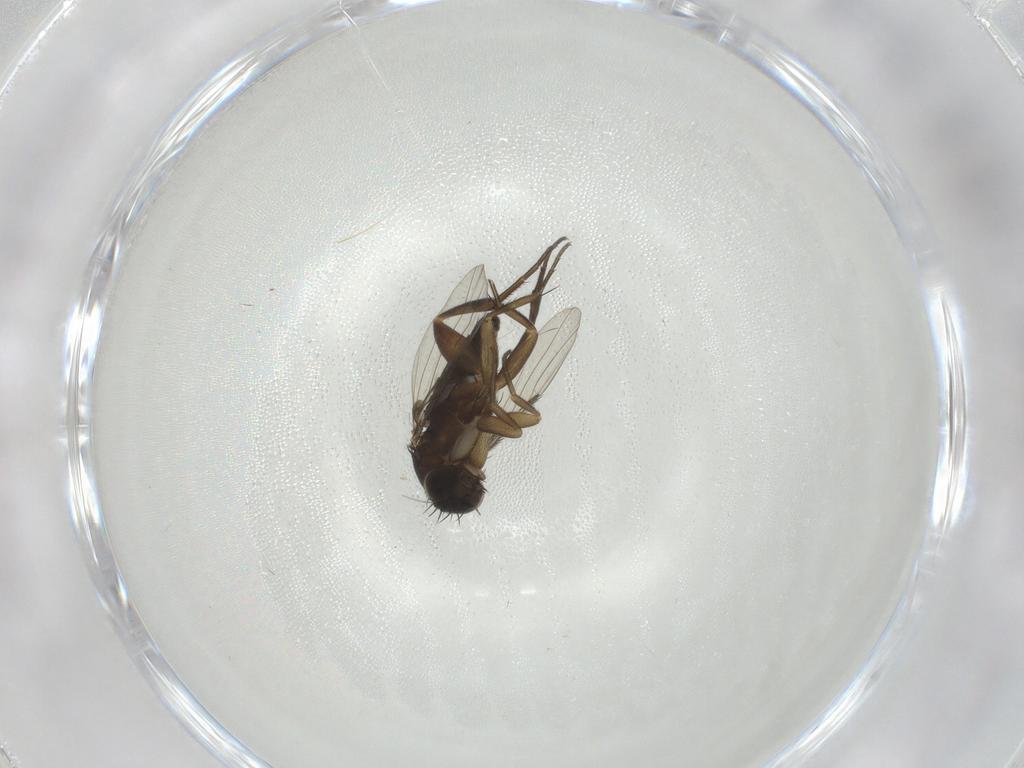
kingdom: Animalia
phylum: Arthropoda
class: Insecta
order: Diptera
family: Phoridae
